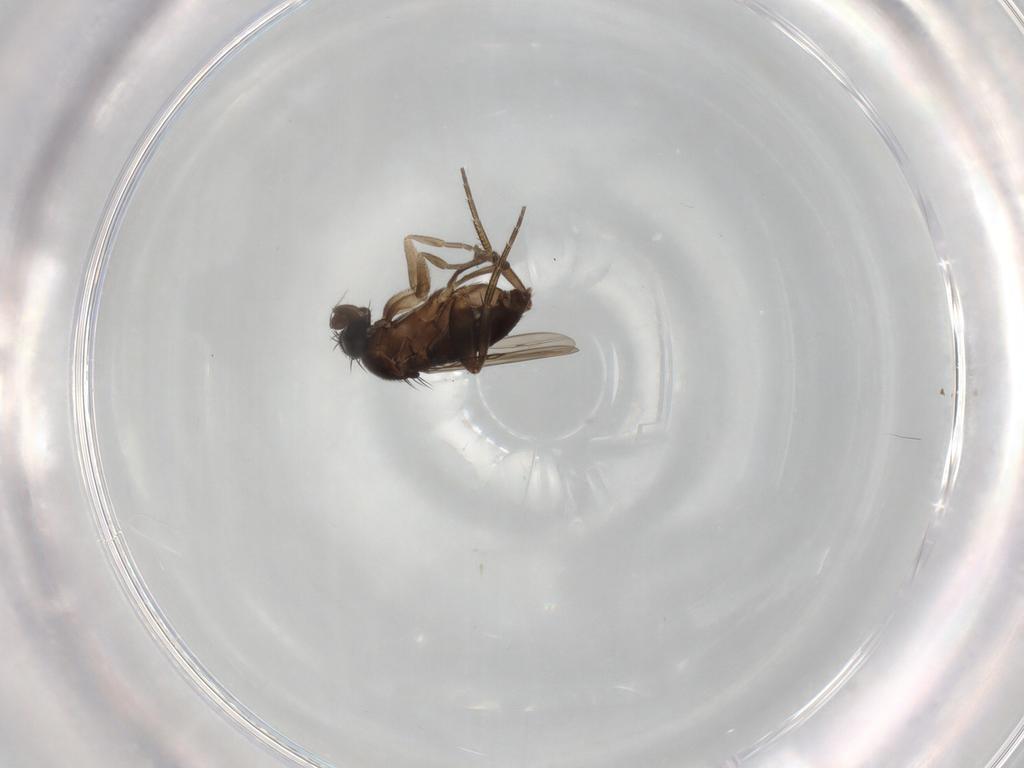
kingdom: Animalia
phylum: Arthropoda
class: Insecta
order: Diptera
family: Phoridae
